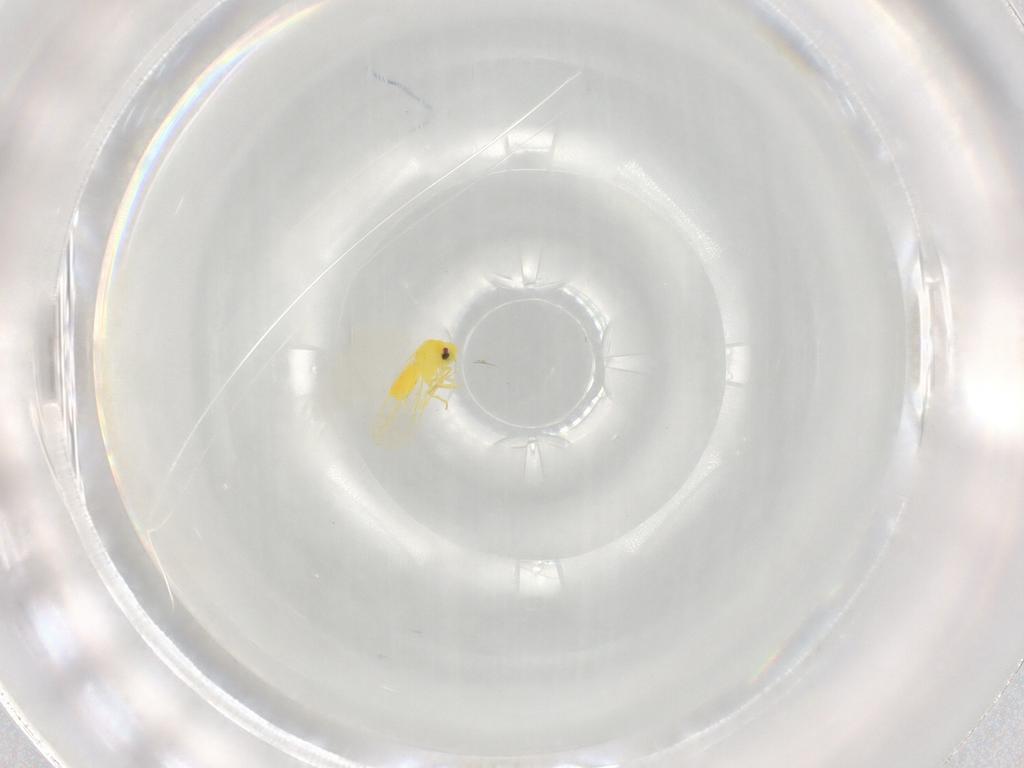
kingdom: Animalia
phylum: Arthropoda
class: Insecta
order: Hemiptera
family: Aleyrodidae
